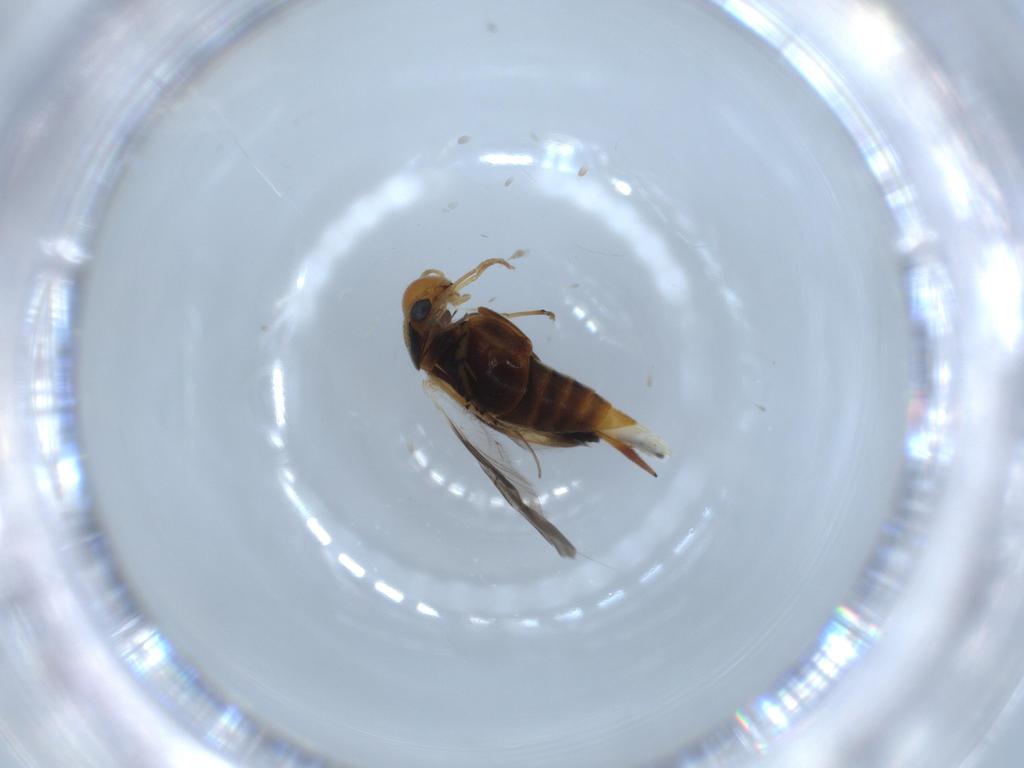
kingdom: Animalia
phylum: Arthropoda
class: Insecta
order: Coleoptera
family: Mordellidae
